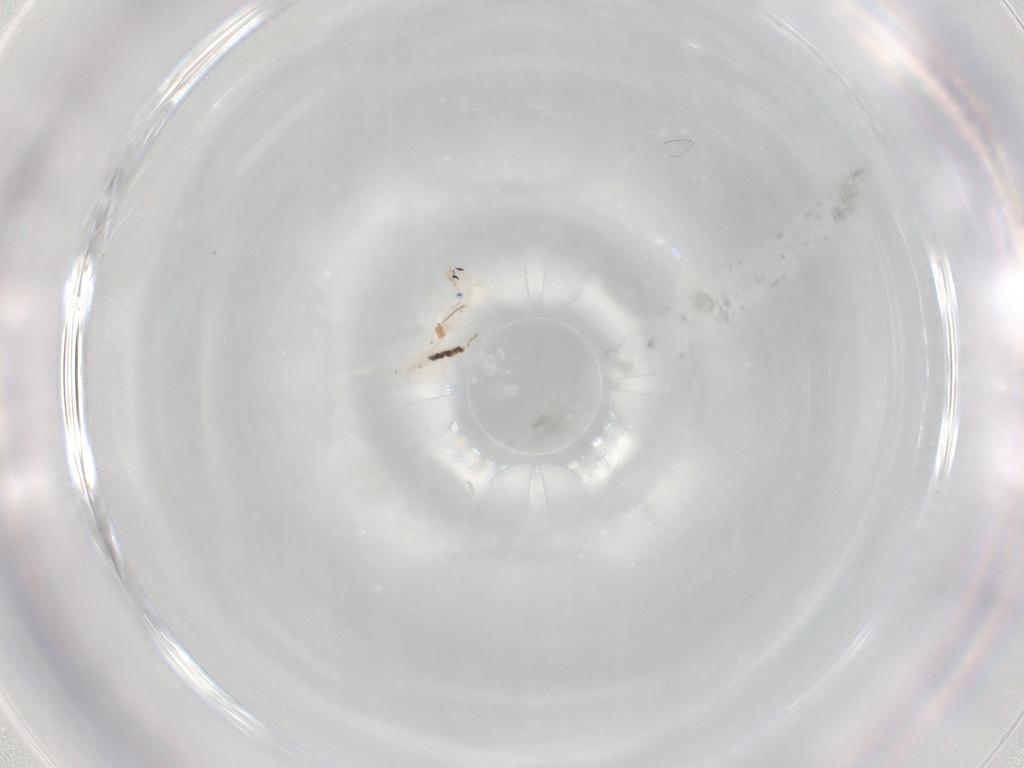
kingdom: Animalia
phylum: Arthropoda
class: Collembola
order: Entomobryomorpha
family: Entomobryidae
